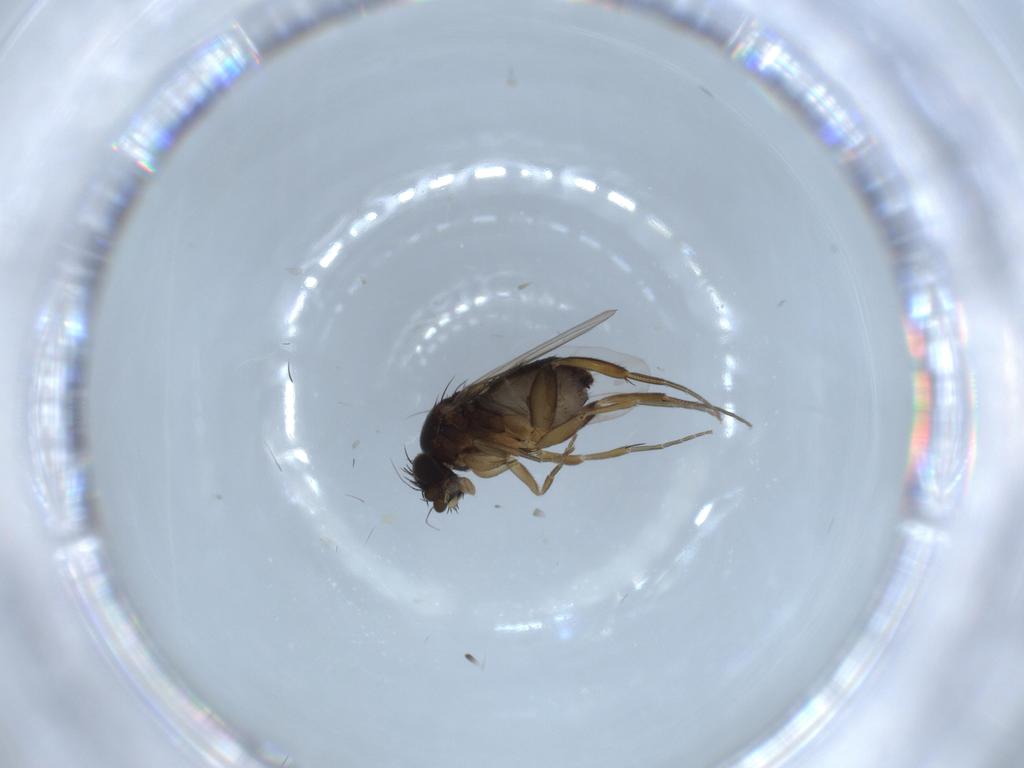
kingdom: Animalia
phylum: Arthropoda
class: Insecta
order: Diptera
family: Phoridae
